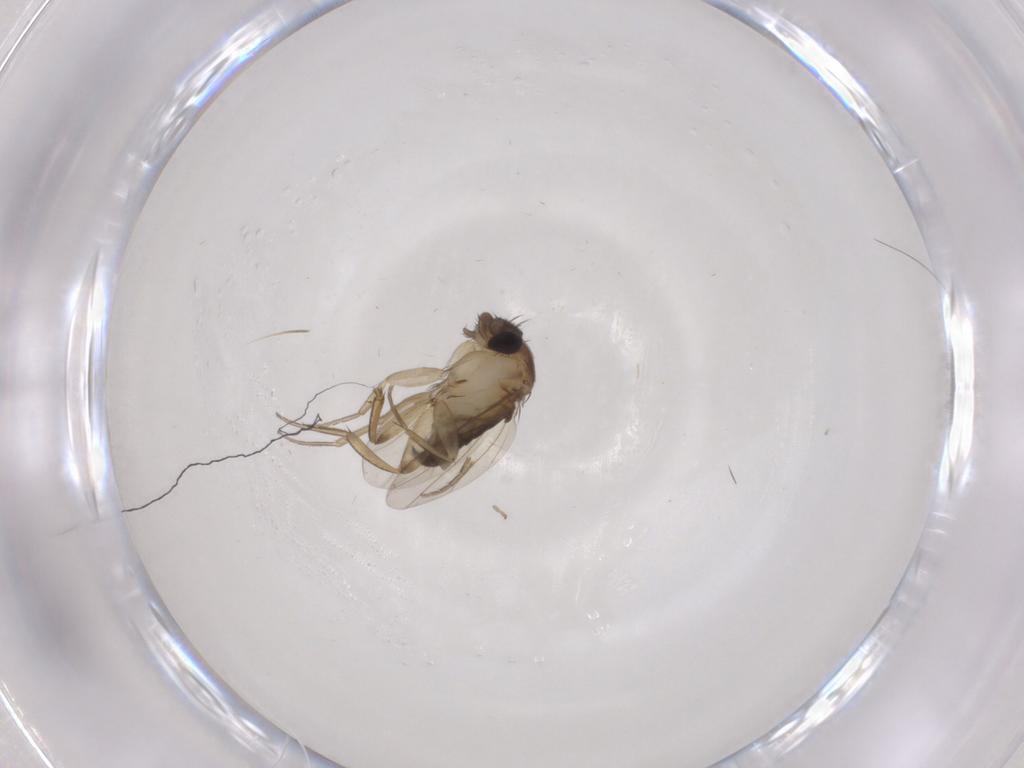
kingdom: Animalia
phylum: Arthropoda
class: Insecta
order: Diptera
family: Phoridae
